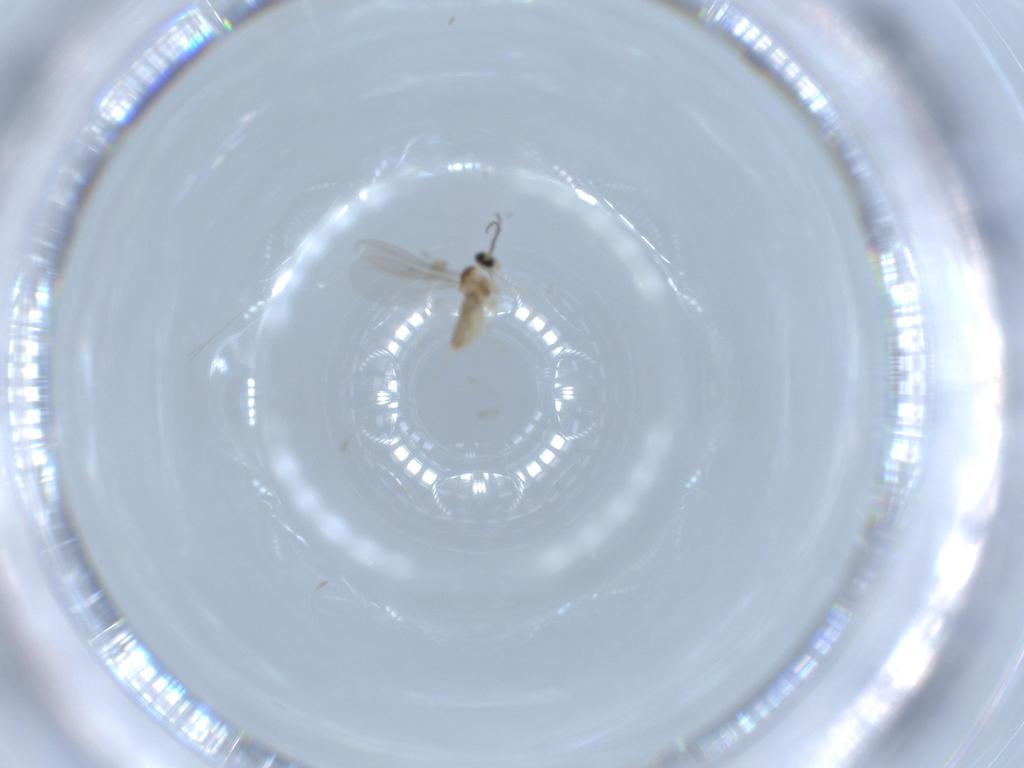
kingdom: Animalia
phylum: Arthropoda
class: Insecta
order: Diptera
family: Cecidomyiidae
